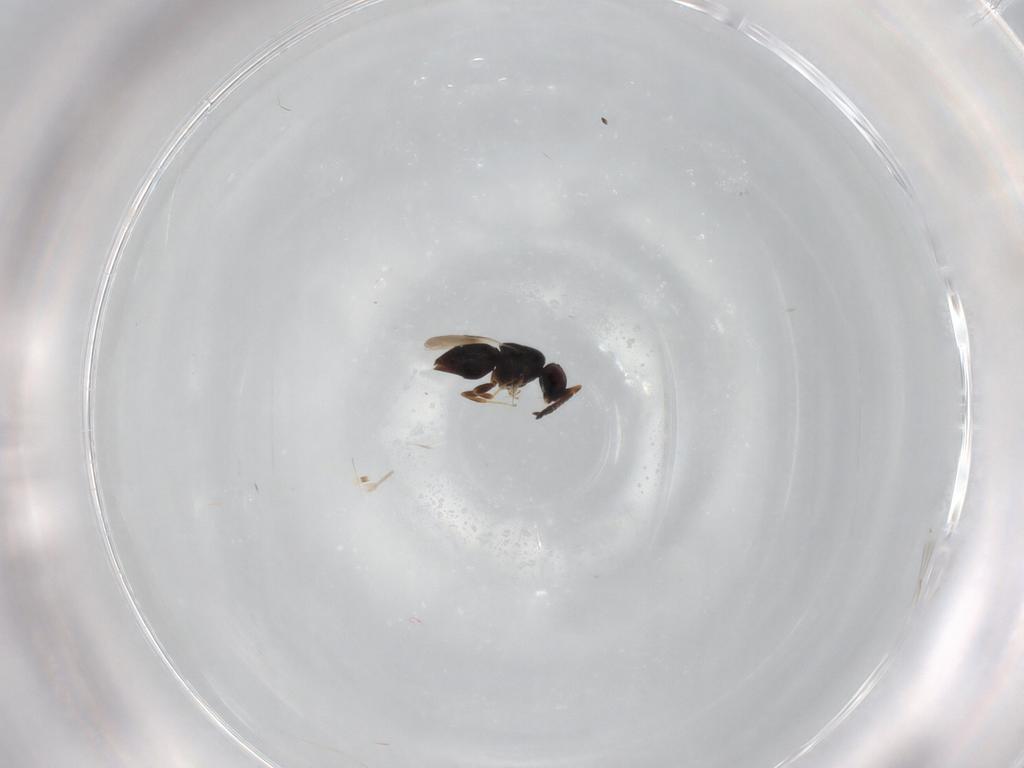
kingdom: Animalia
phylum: Arthropoda
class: Insecta
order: Hymenoptera
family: Ceraphronidae
